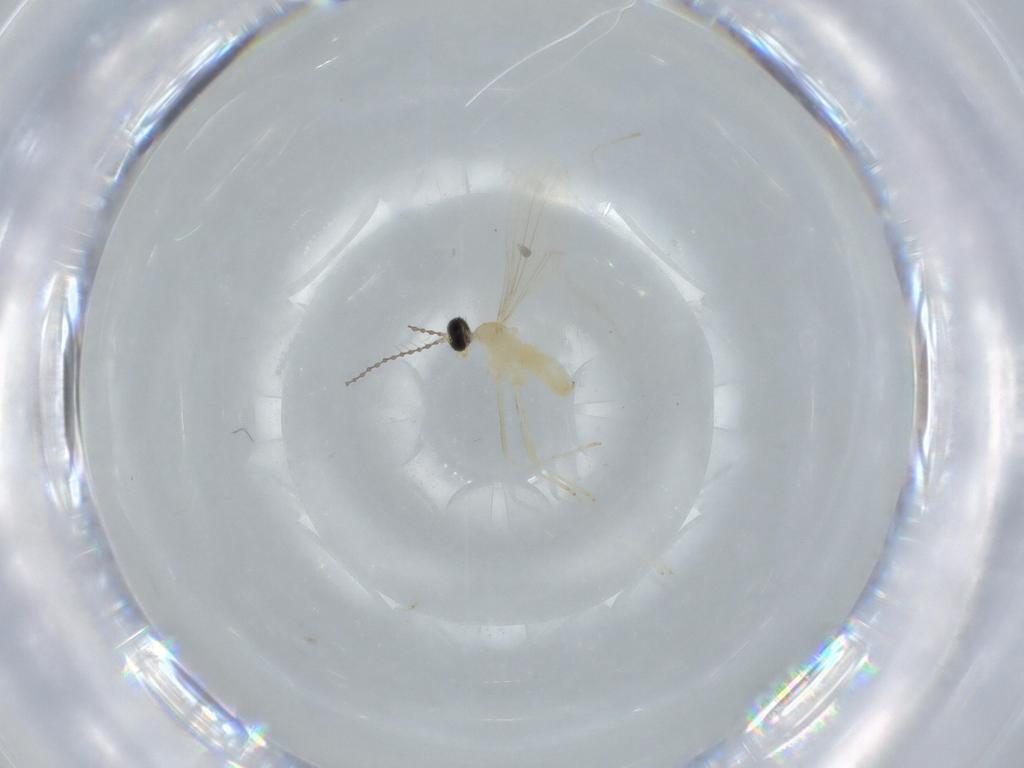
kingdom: Animalia
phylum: Arthropoda
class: Insecta
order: Diptera
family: Cecidomyiidae
